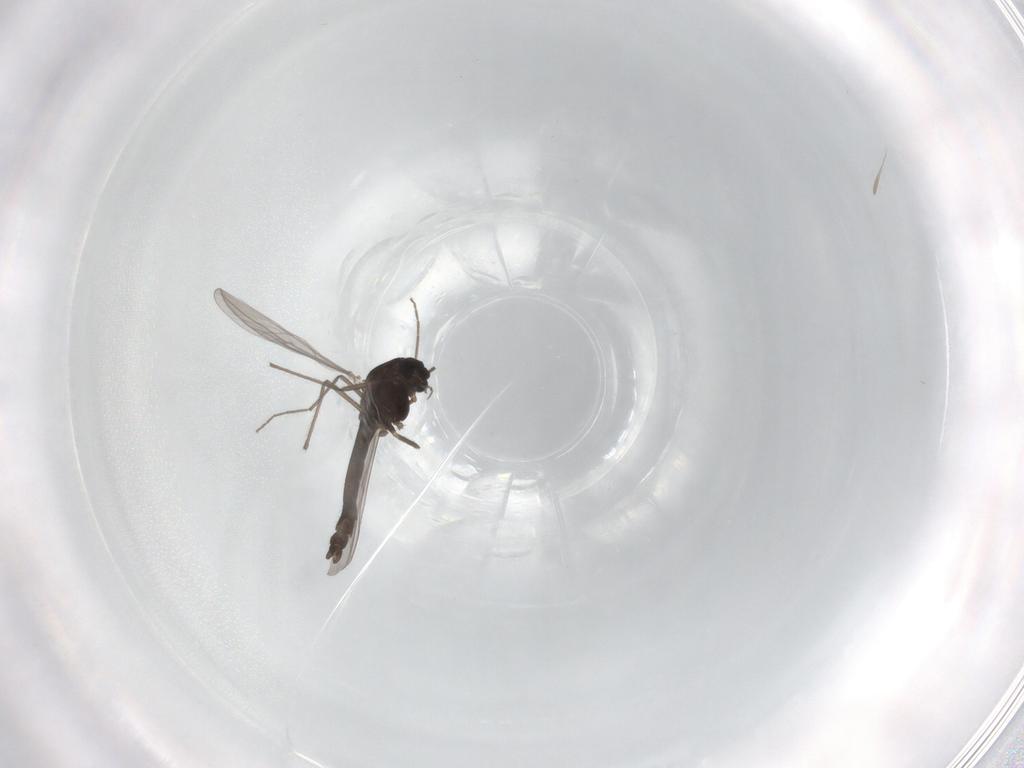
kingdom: Animalia
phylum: Arthropoda
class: Insecta
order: Diptera
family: Chironomidae
